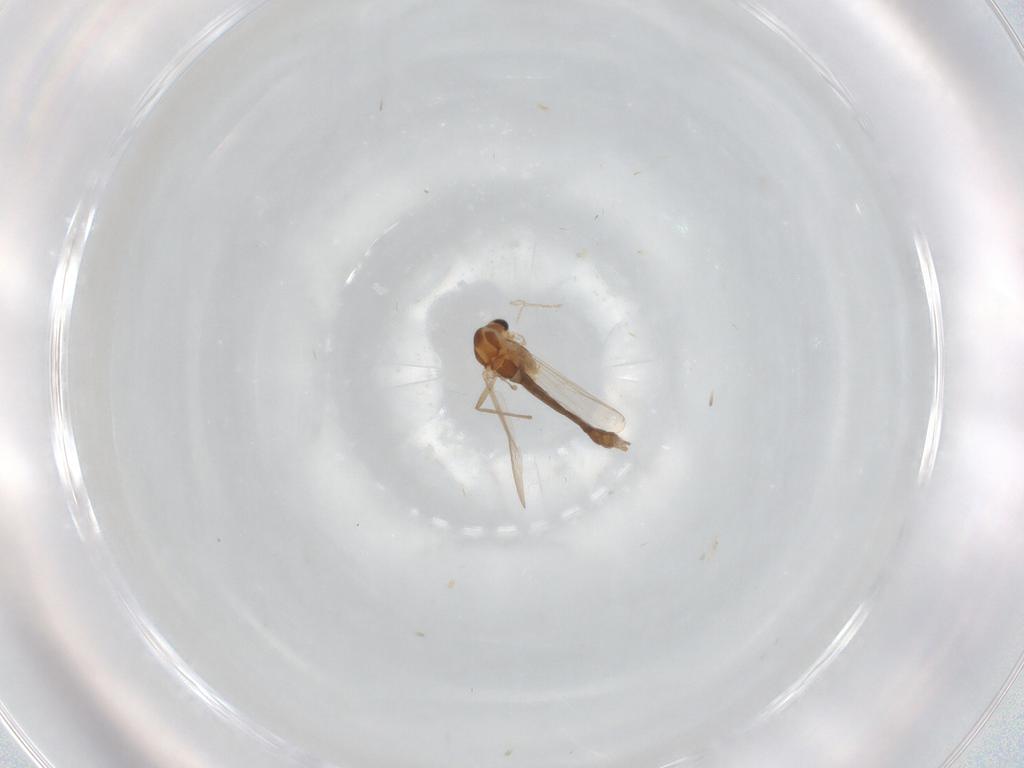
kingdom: Animalia
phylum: Arthropoda
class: Insecta
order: Diptera
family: Chironomidae
